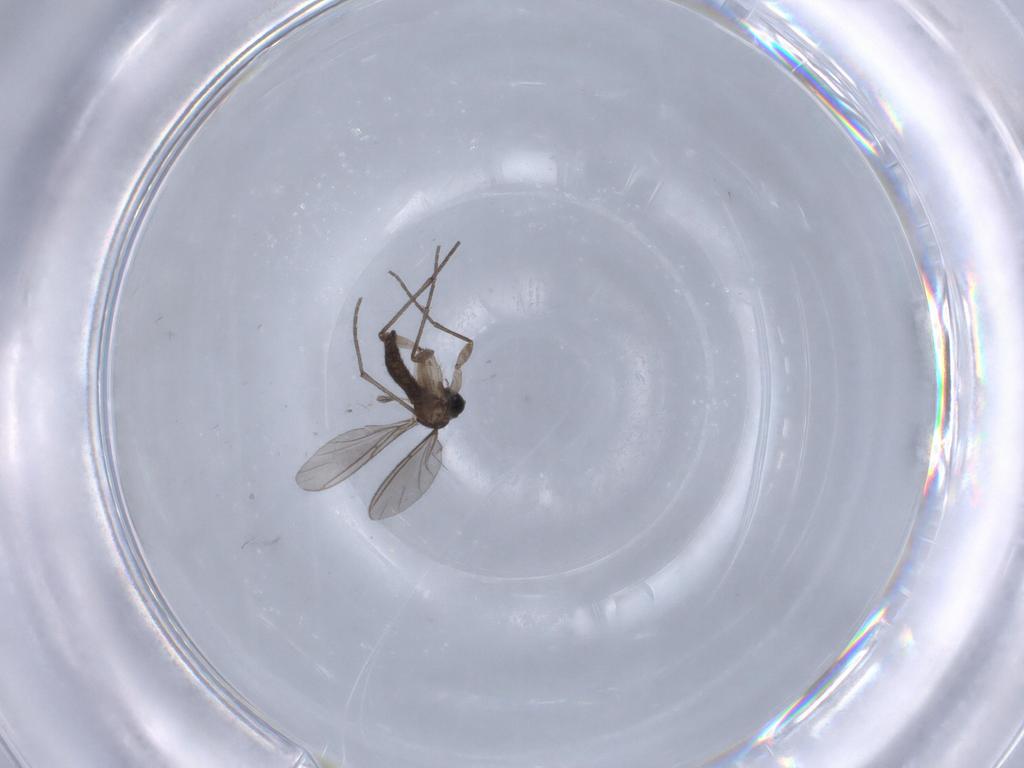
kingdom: Animalia
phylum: Arthropoda
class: Insecta
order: Diptera
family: Sciaridae
